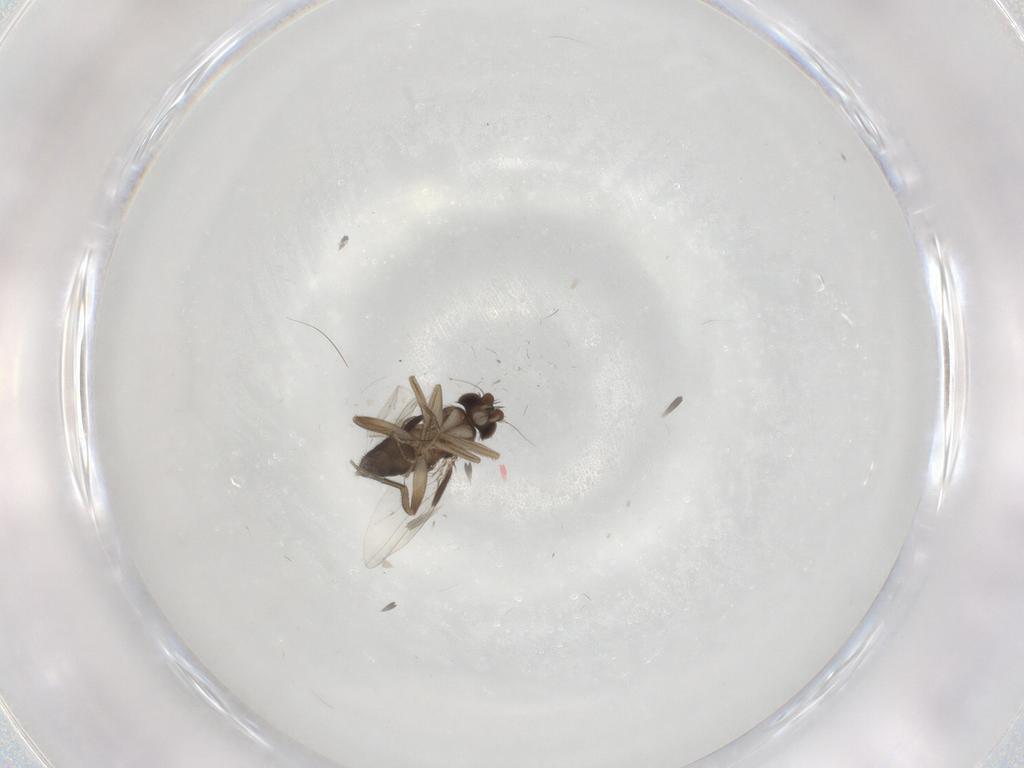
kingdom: Animalia
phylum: Arthropoda
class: Insecta
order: Diptera
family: Phoridae
